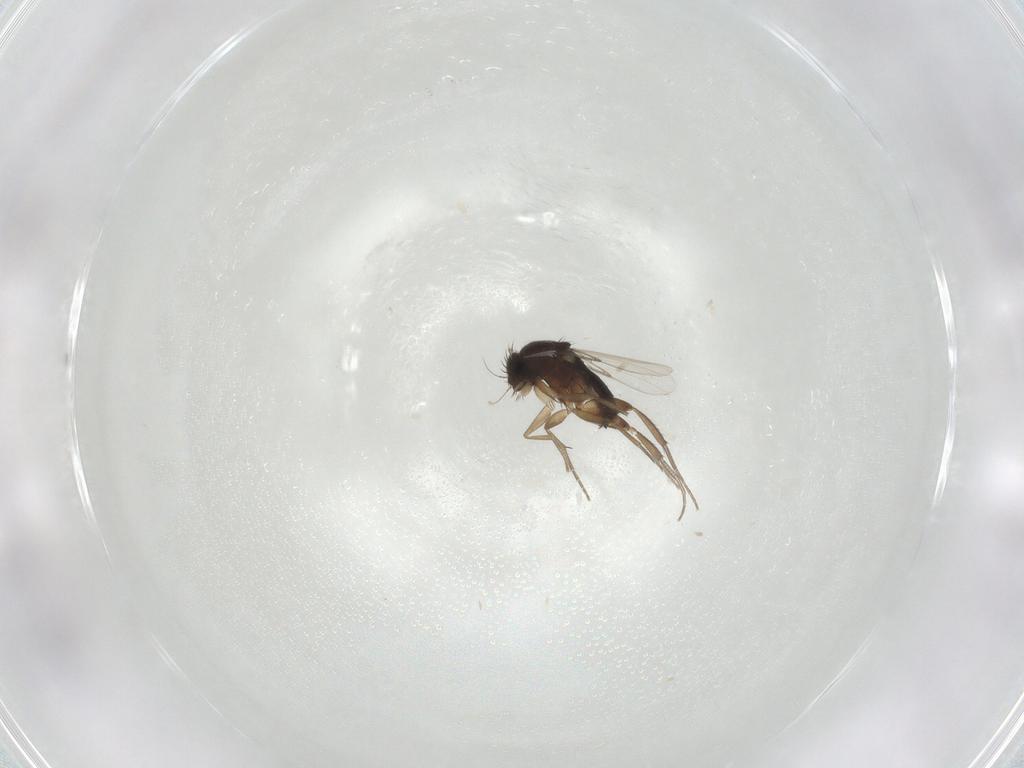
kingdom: Animalia
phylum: Arthropoda
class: Insecta
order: Diptera
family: Phoridae
